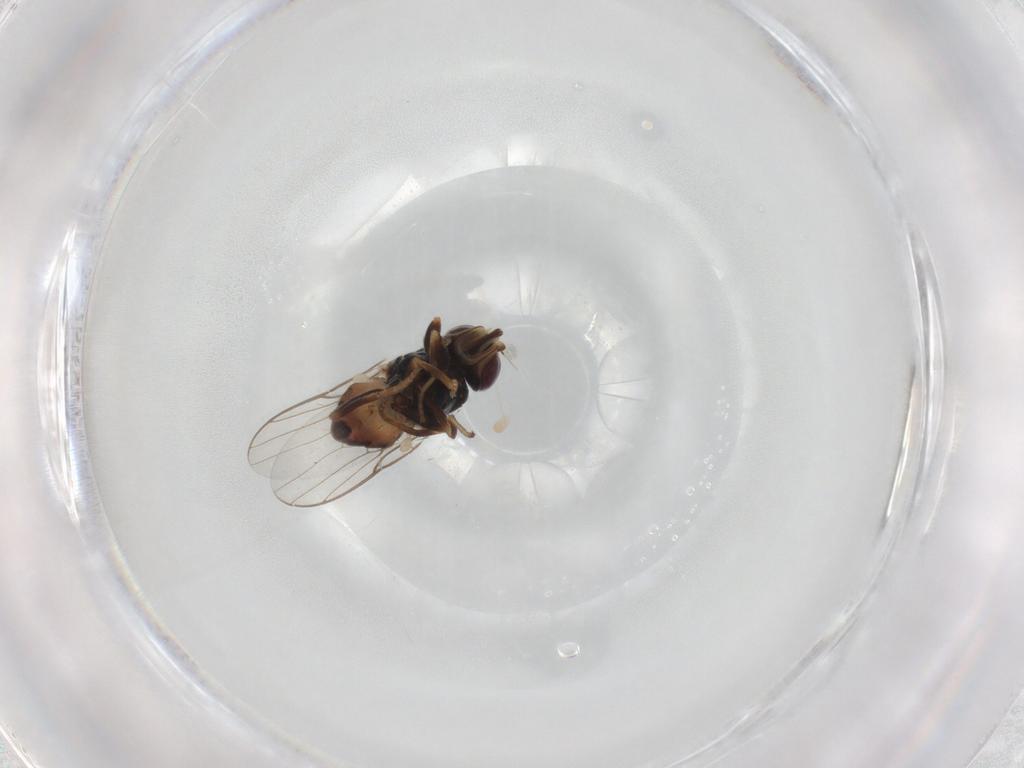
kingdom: Animalia
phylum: Arthropoda
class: Insecta
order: Diptera
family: Chloropidae
